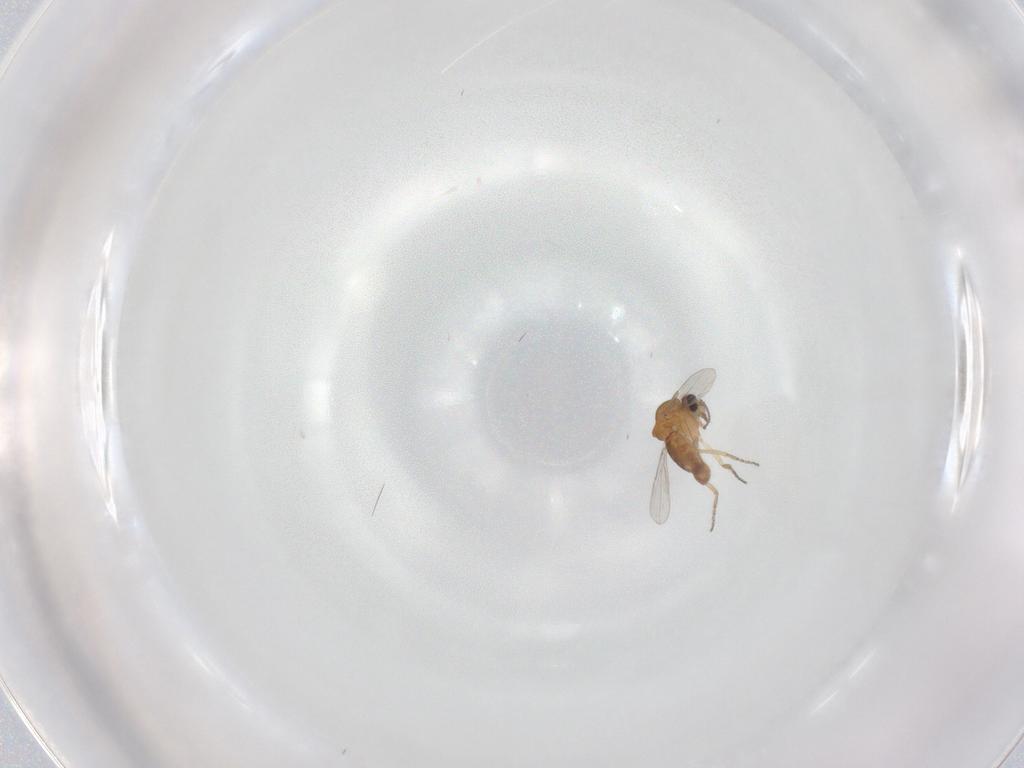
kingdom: Animalia
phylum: Arthropoda
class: Insecta
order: Diptera
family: Ceratopogonidae
